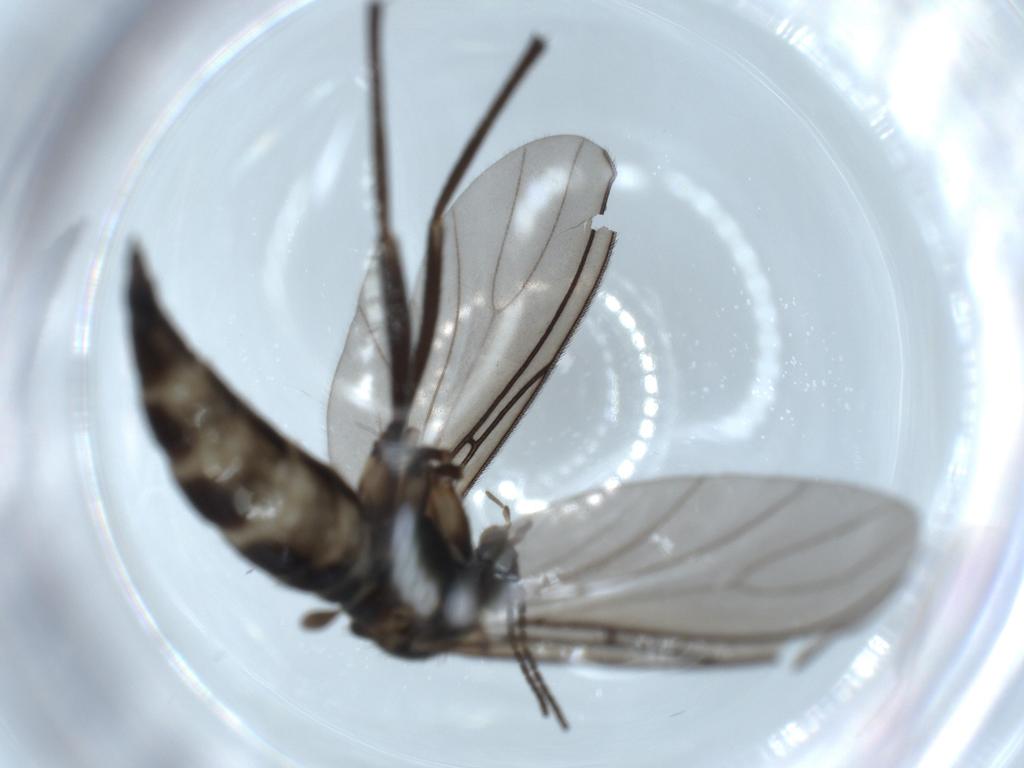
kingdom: Animalia
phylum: Arthropoda
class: Insecta
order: Diptera
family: Sciaridae
